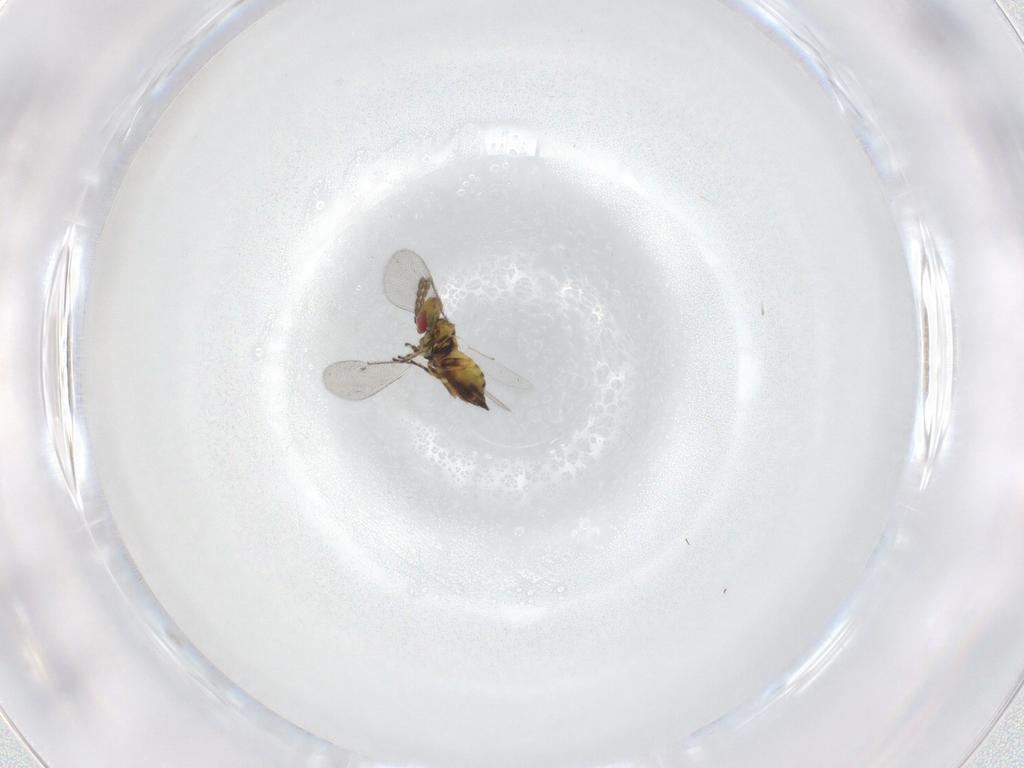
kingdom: Animalia
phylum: Arthropoda
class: Insecta
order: Hymenoptera
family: Eulophidae
